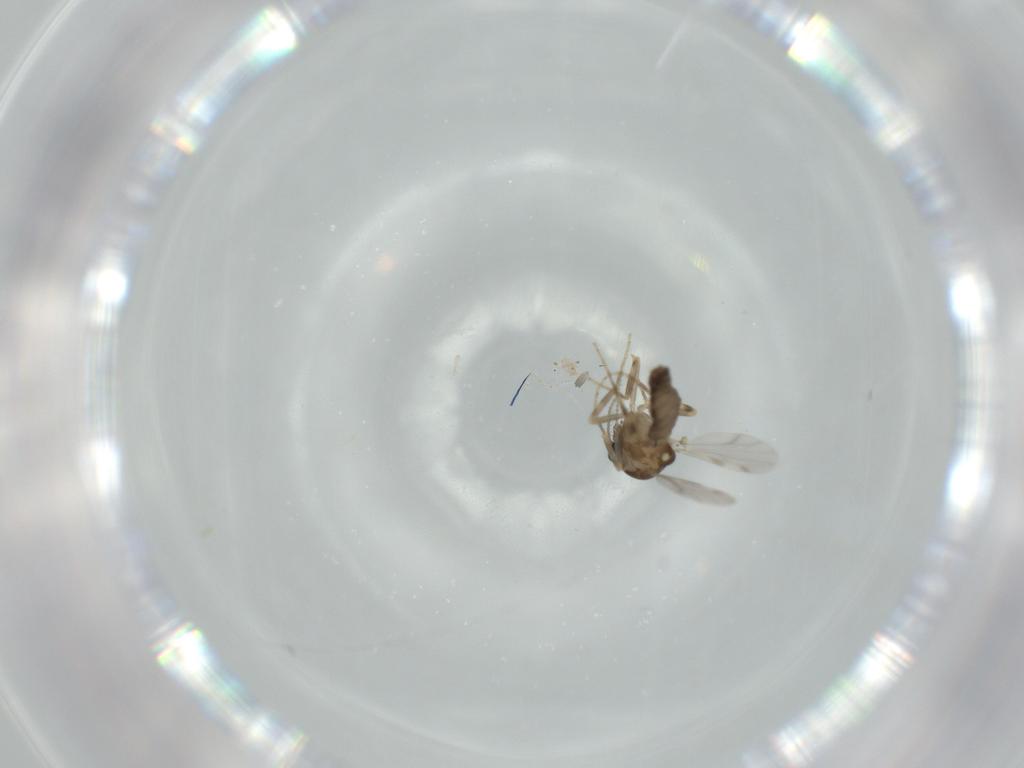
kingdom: Animalia
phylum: Arthropoda
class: Insecta
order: Diptera
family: Ceratopogonidae
